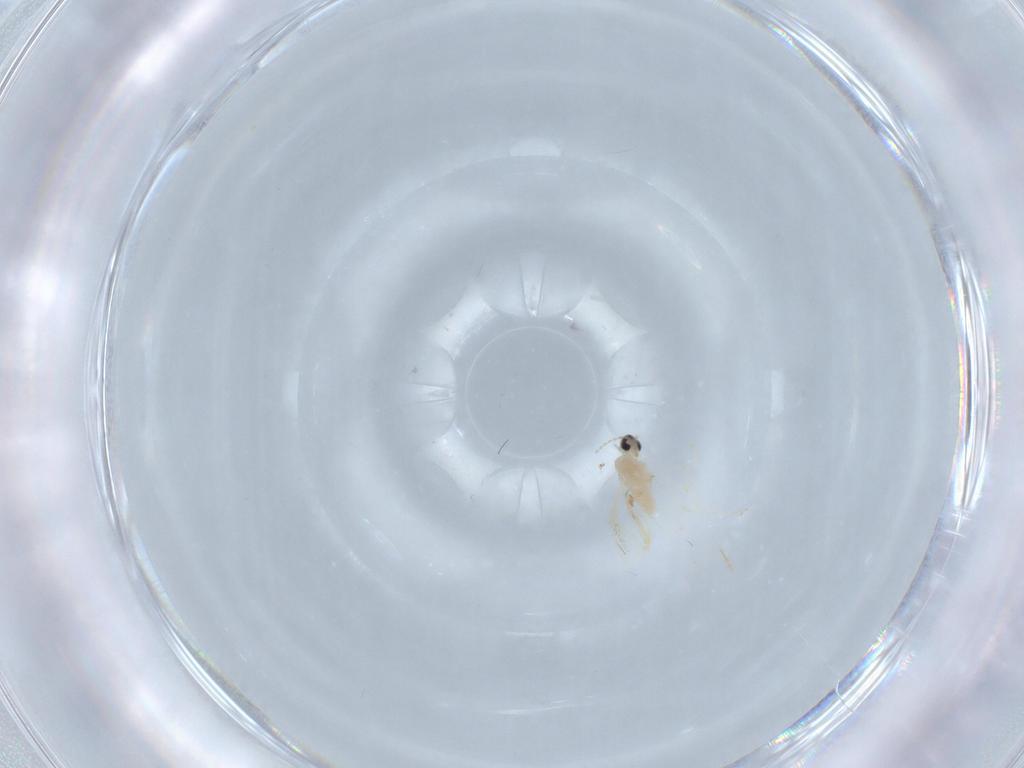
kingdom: Animalia
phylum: Arthropoda
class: Insecta
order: Diptera
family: Cecidomyiidae
